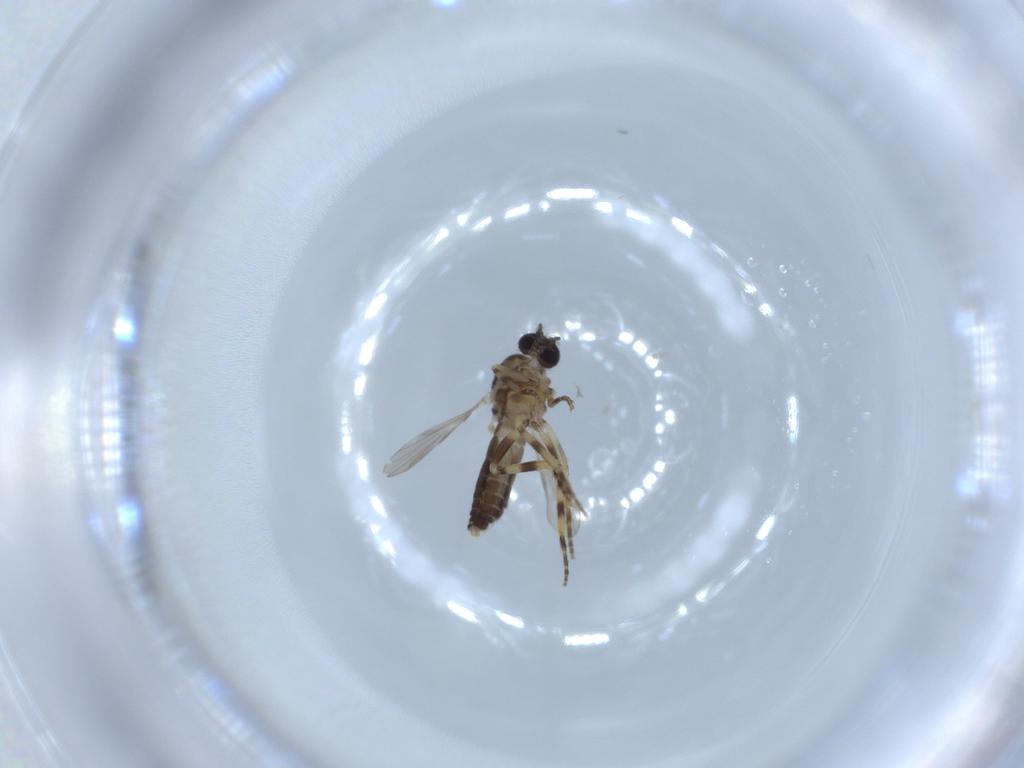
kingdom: Animalia
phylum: Arthropoda
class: Insecta
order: Diptera
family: Ceratopogonidae
